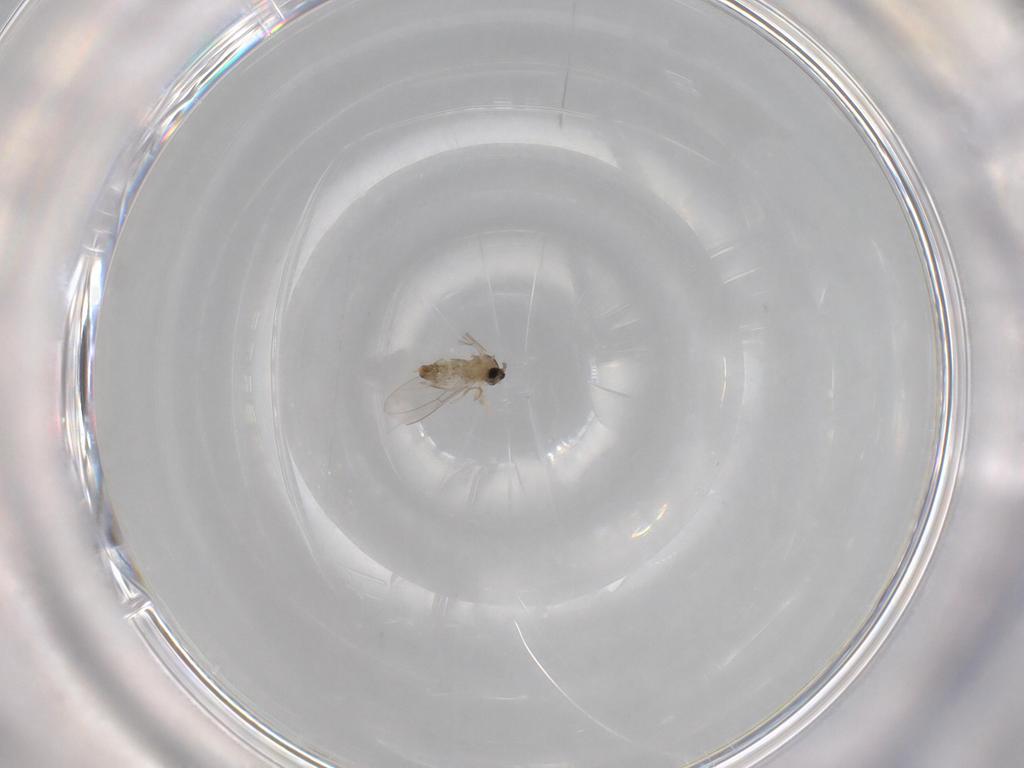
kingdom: Animalia
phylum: Arthropoda
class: Insecta
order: Diptera
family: Cecidomyiidae
